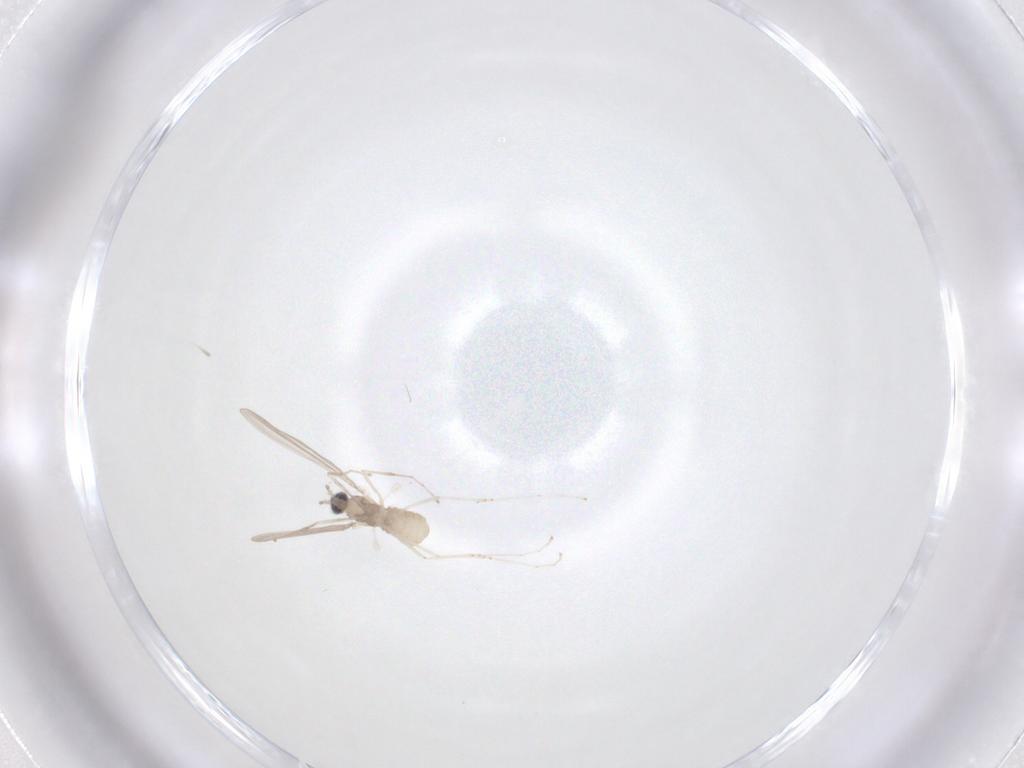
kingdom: Animalia
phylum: Arthropoda
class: Insecta
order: Diptera
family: Cecidomyiidae
